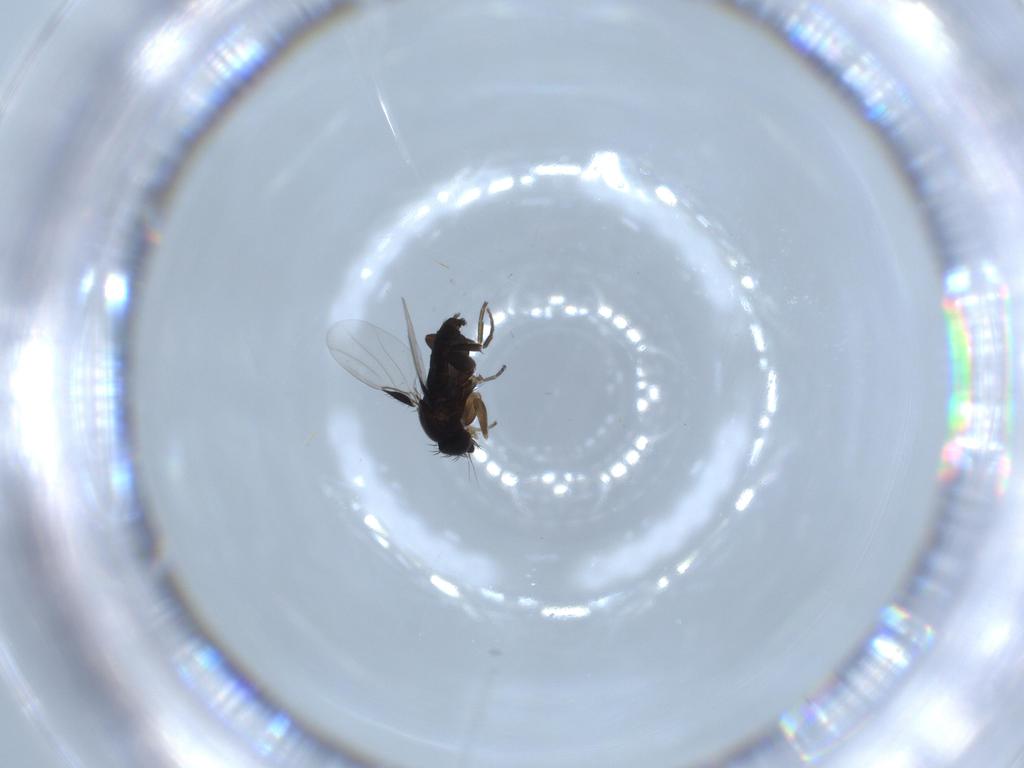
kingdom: Animalia
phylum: Arthropoda
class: Insecta
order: Diptera
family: Phoridae
